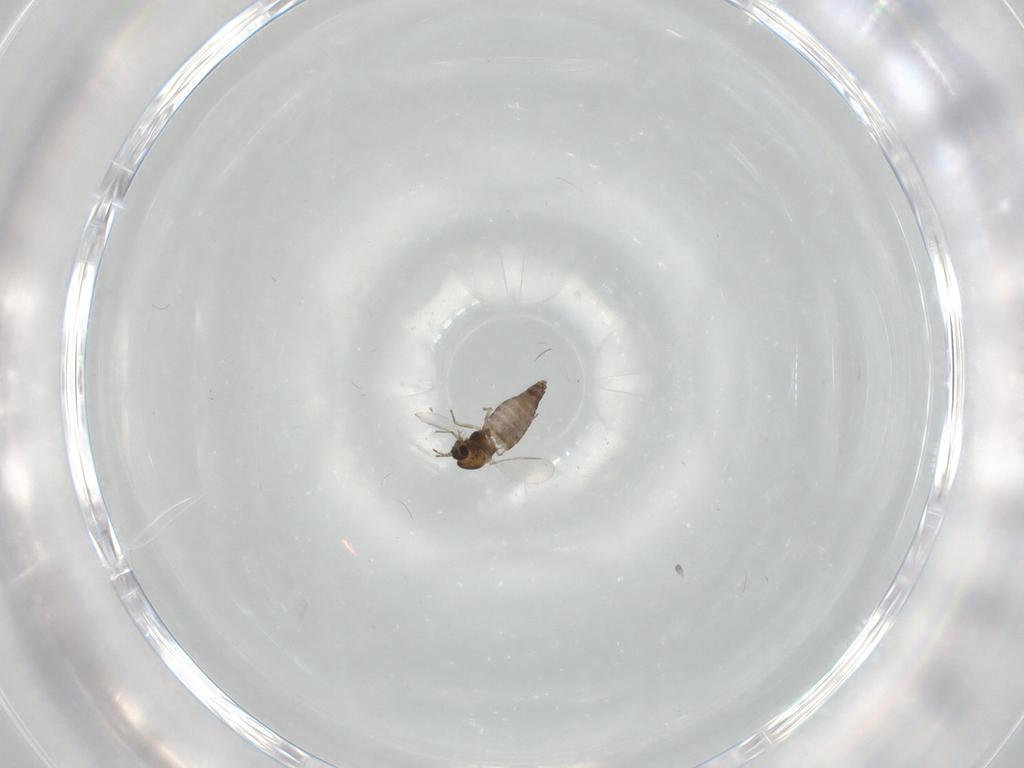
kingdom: Animalia
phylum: Arthropoda
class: Insecta
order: Diptera
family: Chironomidae
